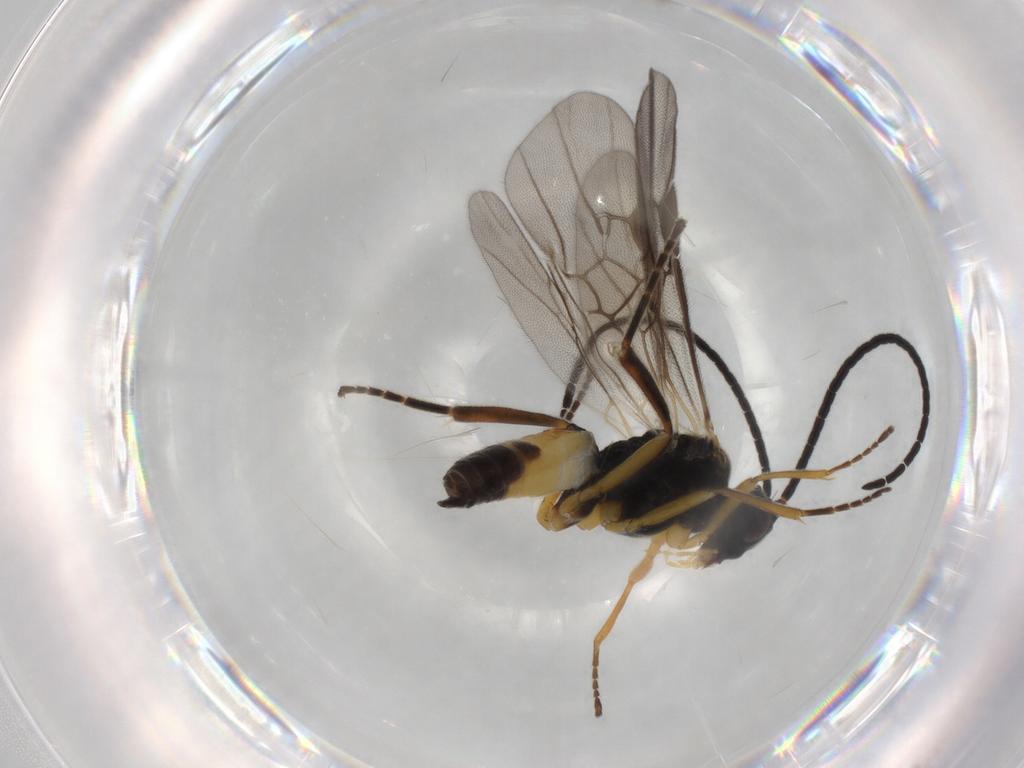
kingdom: Animalia
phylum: Arthropoda
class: Insecta
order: Hymenoptera
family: Braconidae
